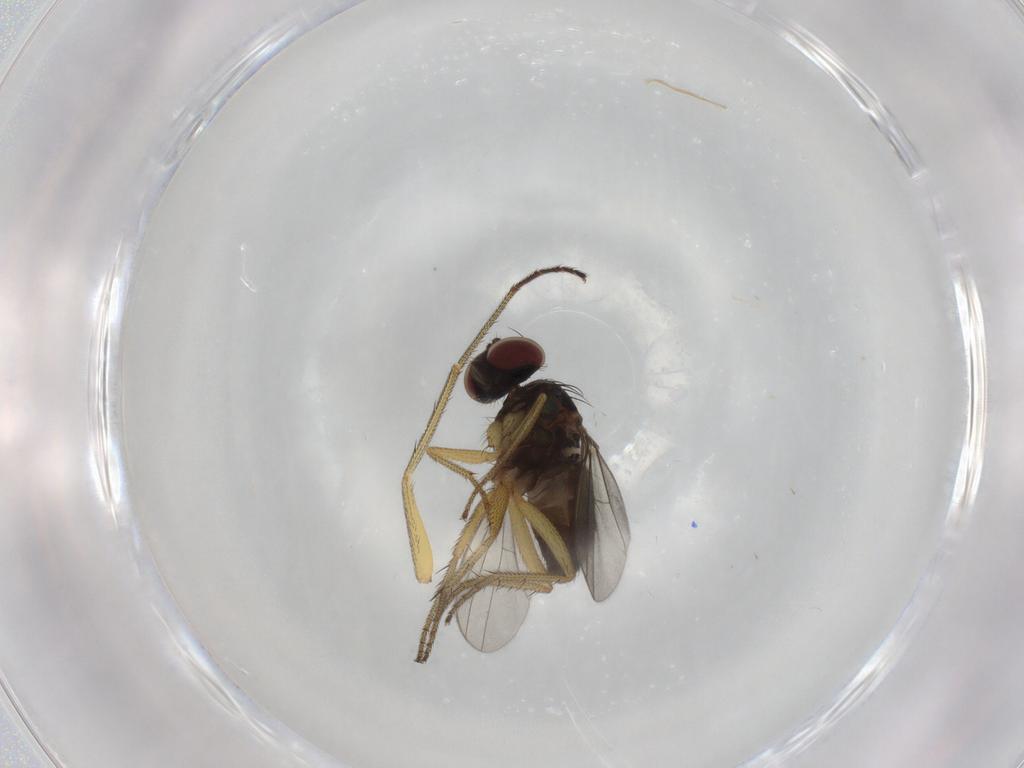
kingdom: Animalia
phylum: Arthropoda
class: Insecta
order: Diptera
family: Dolichopodidae
